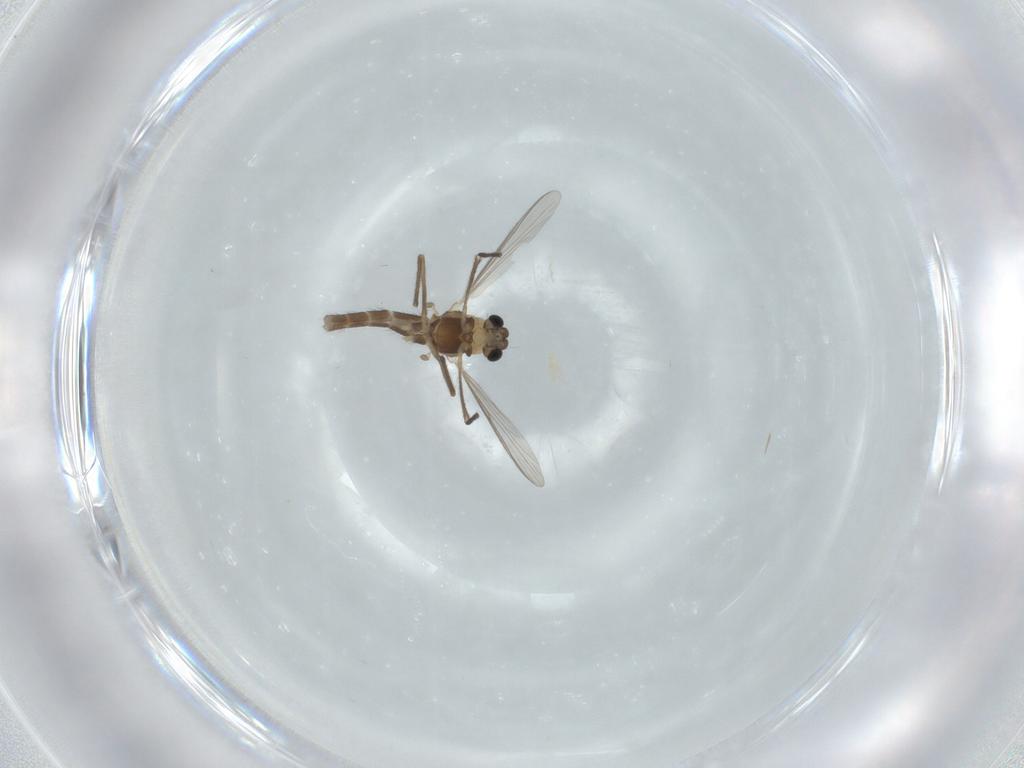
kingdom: Animalia
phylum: Arthropoda
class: Insecta
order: Diptera
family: Chironomidae
